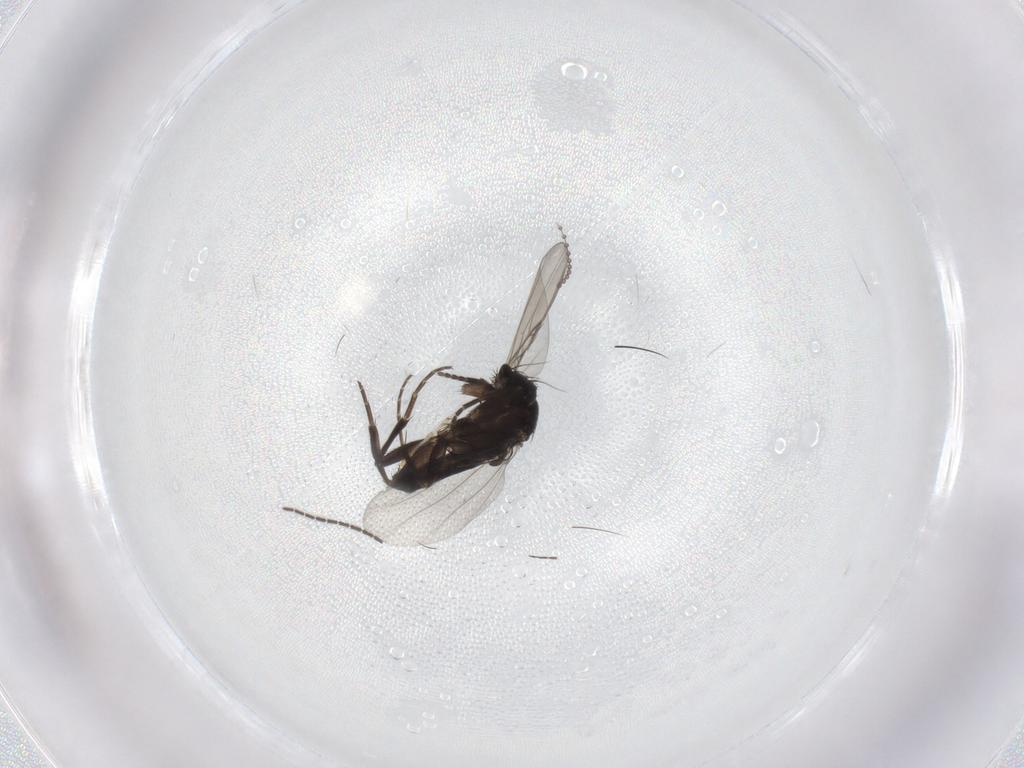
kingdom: Animalia
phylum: Arthropoda
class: Insecta
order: Diptera
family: Phoridae
